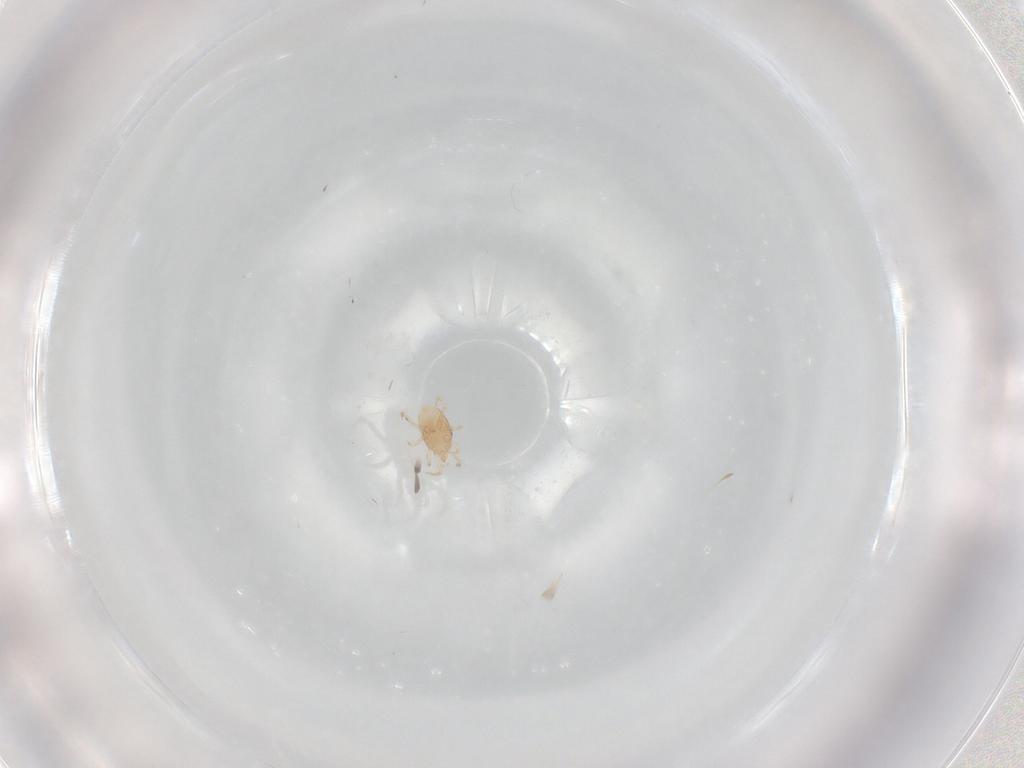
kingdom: Animalia
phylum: Arthropoda
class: Arachnida
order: Mesostigmata
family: Melicharidae
